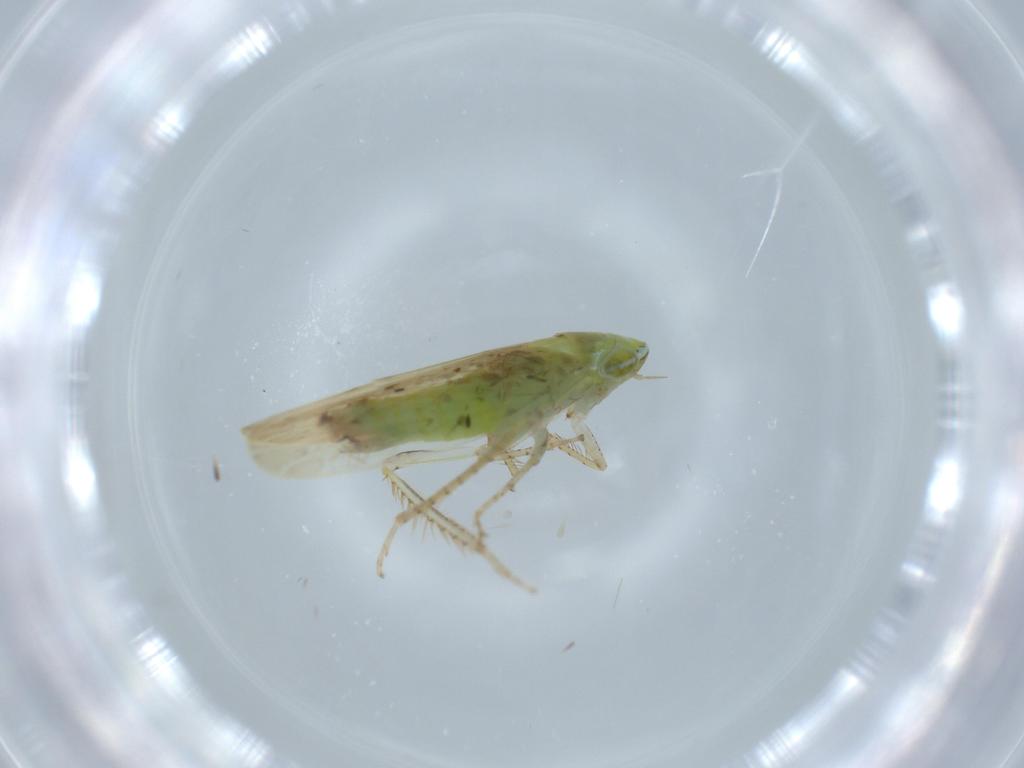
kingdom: Animalia
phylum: Arthropoda
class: Insecta
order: Hemiptera
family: Cicadellidae
